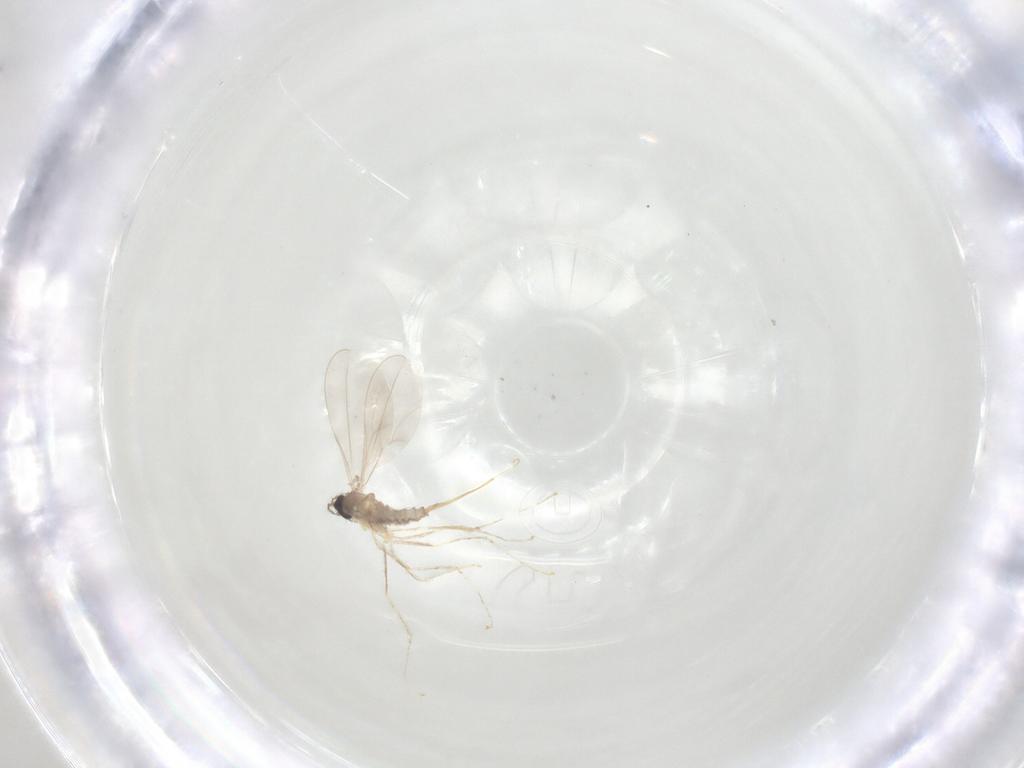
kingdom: Animalia
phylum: Arthropoda
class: Insecta
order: Diptera
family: Cecidomyiidae
